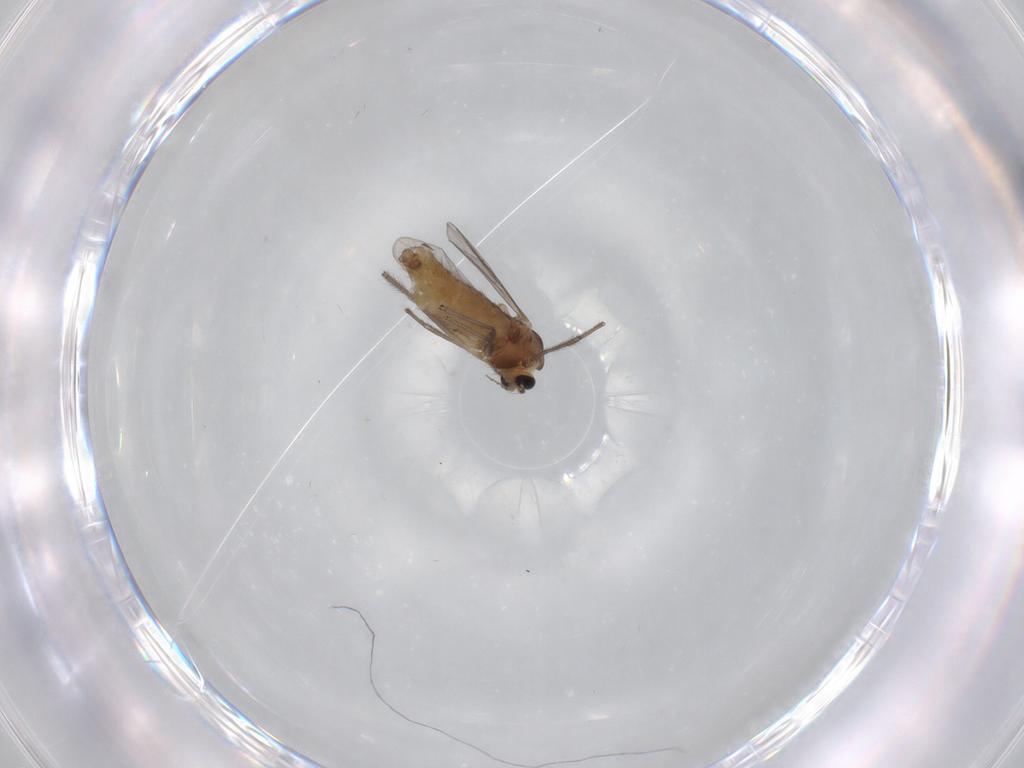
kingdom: Animalia
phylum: Arthropoda
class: Insecta
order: Diptera
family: Chironomidae
